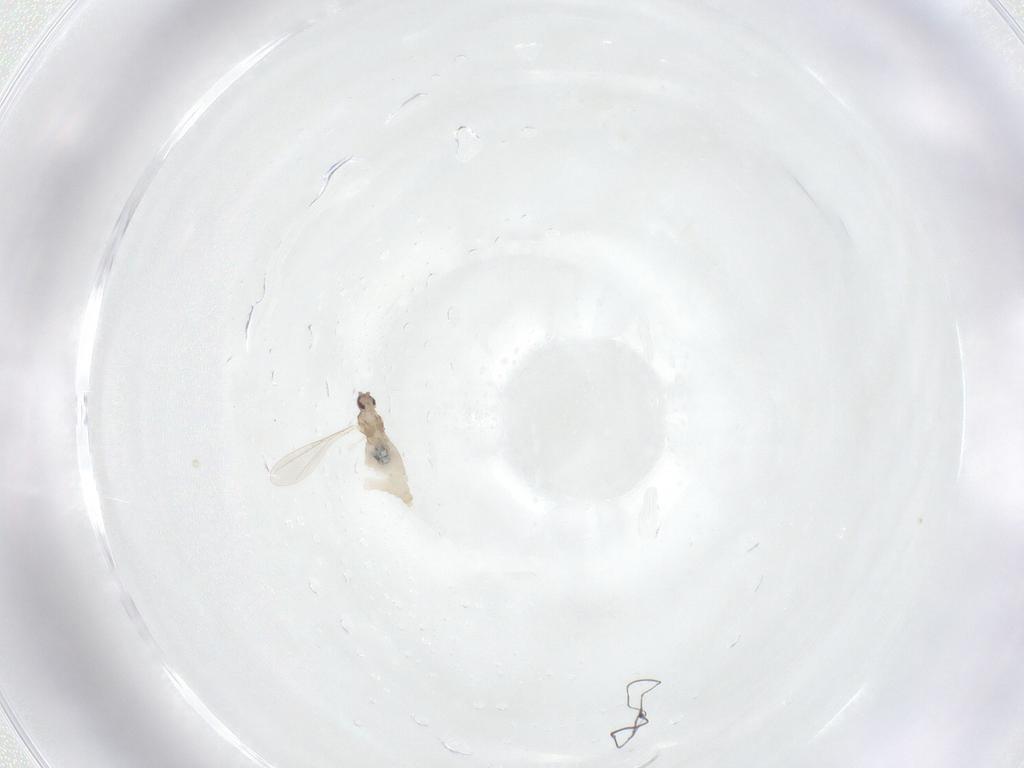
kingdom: Animalia
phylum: Arthropoda
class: Insecta
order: Diptera
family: Cecidomyiidae
